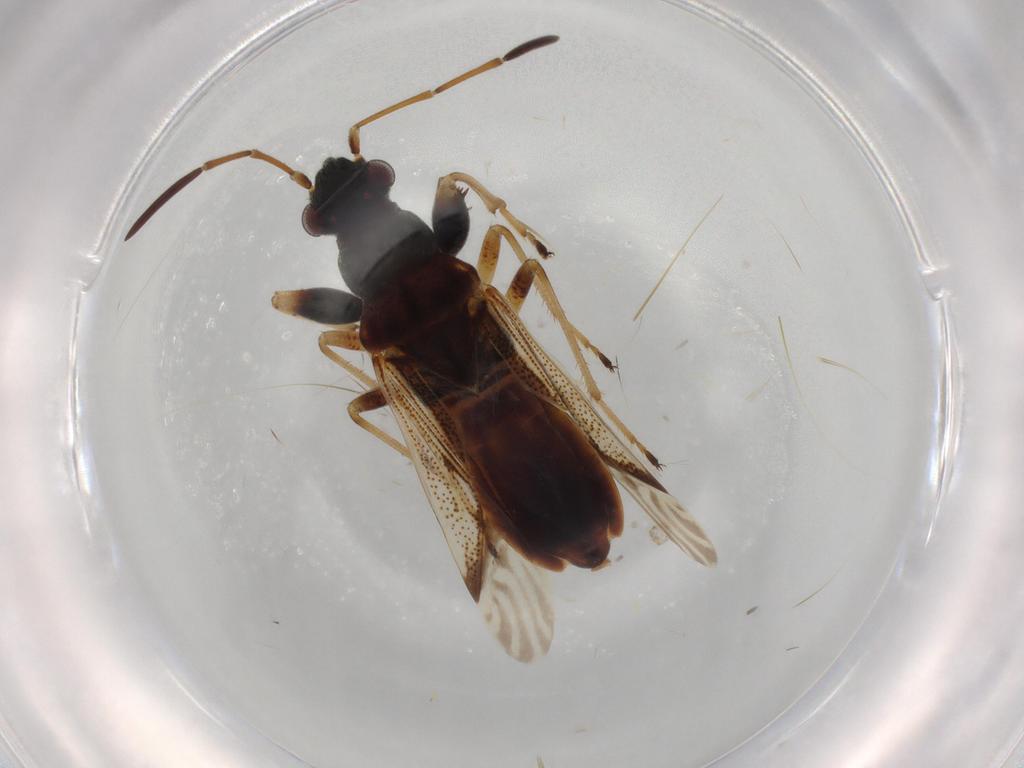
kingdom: Animalia
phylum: Arthropoda
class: Insecta
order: Hemiptera
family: Rhyparochromidae
